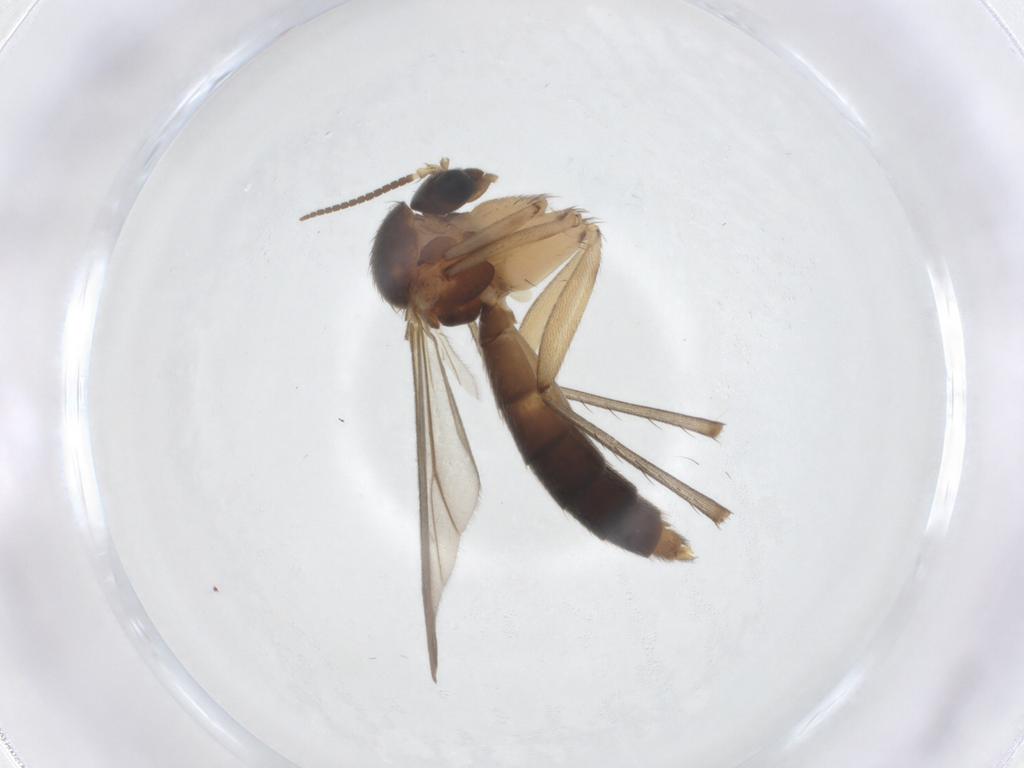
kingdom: Animalia
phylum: Arthropoda
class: Insecta
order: Diptera
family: Chironomidae
